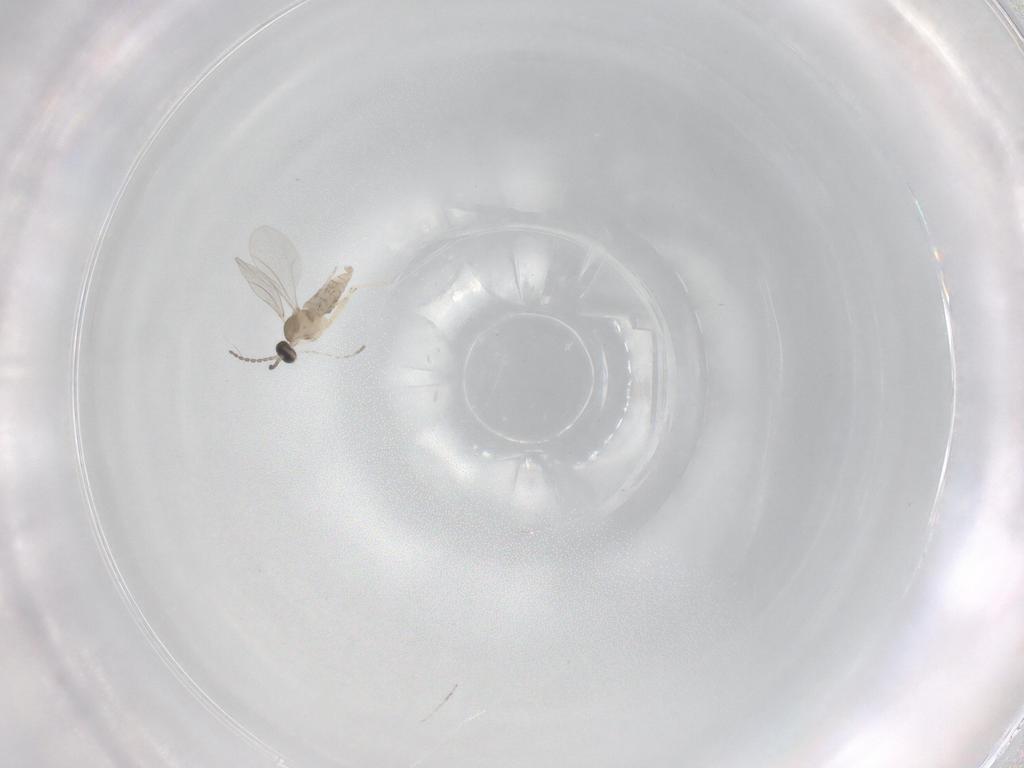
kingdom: Animalia
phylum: Arthropoda
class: Insecta
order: Diptera
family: Cecidomyiidae
